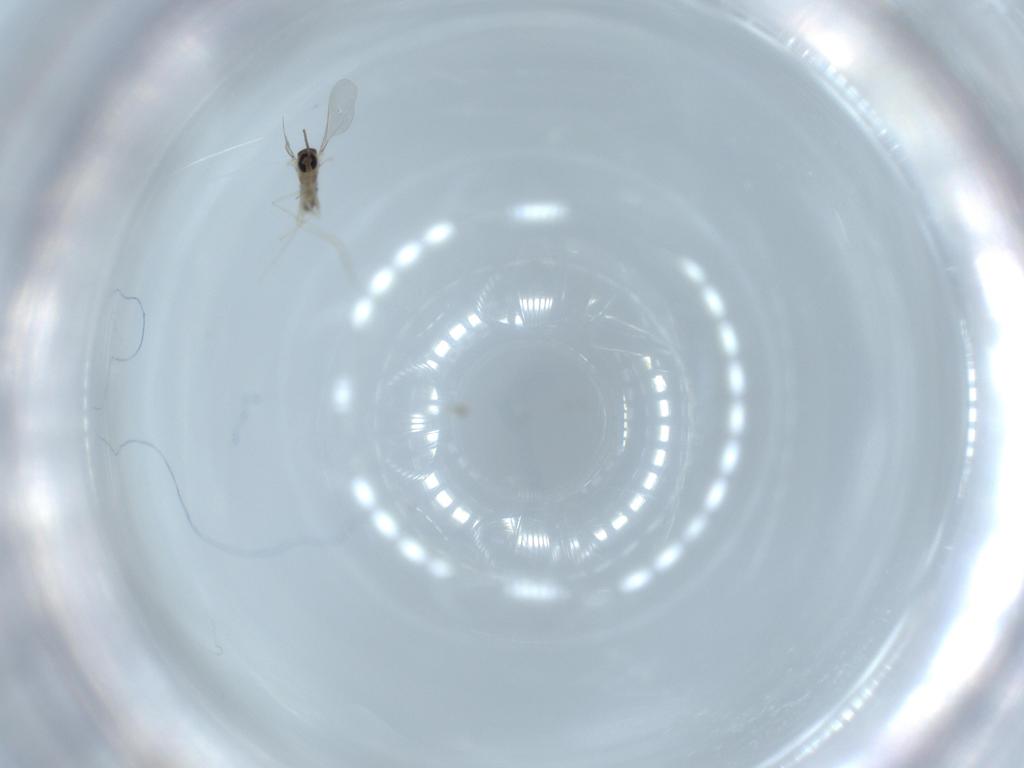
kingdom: Animalia
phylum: Arthropoda
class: Insecta
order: Diptera
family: Cecidomyiidae
